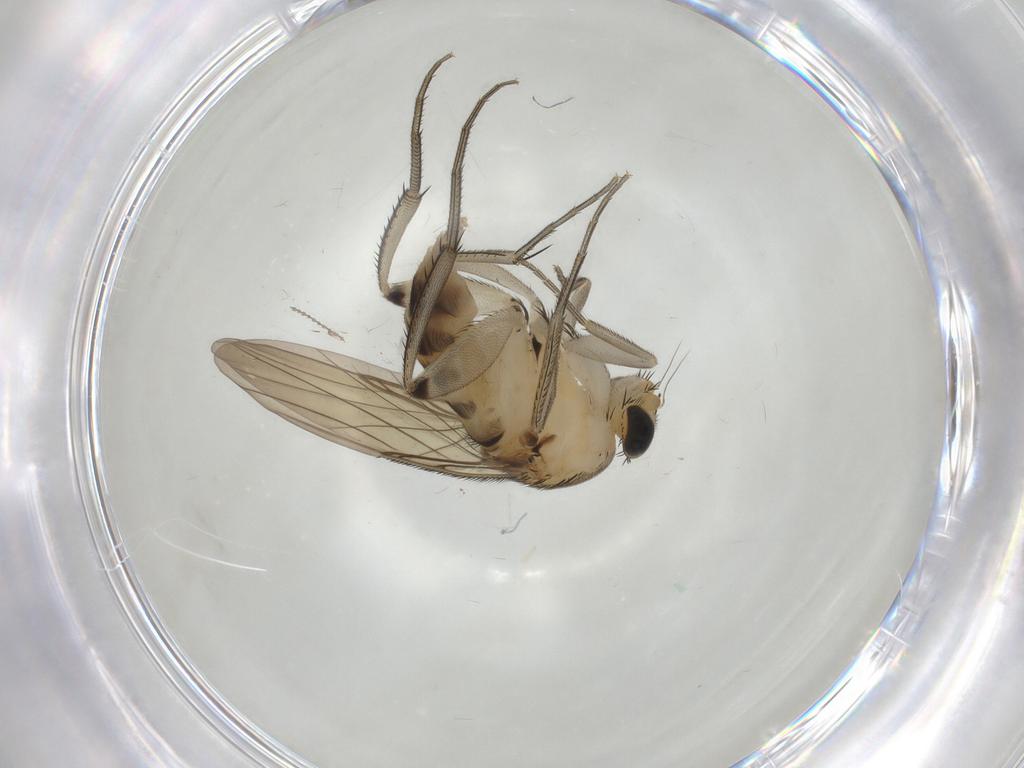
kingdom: Animalia
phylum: Arthropoda
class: Insecta
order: Diptera
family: Phoridae
